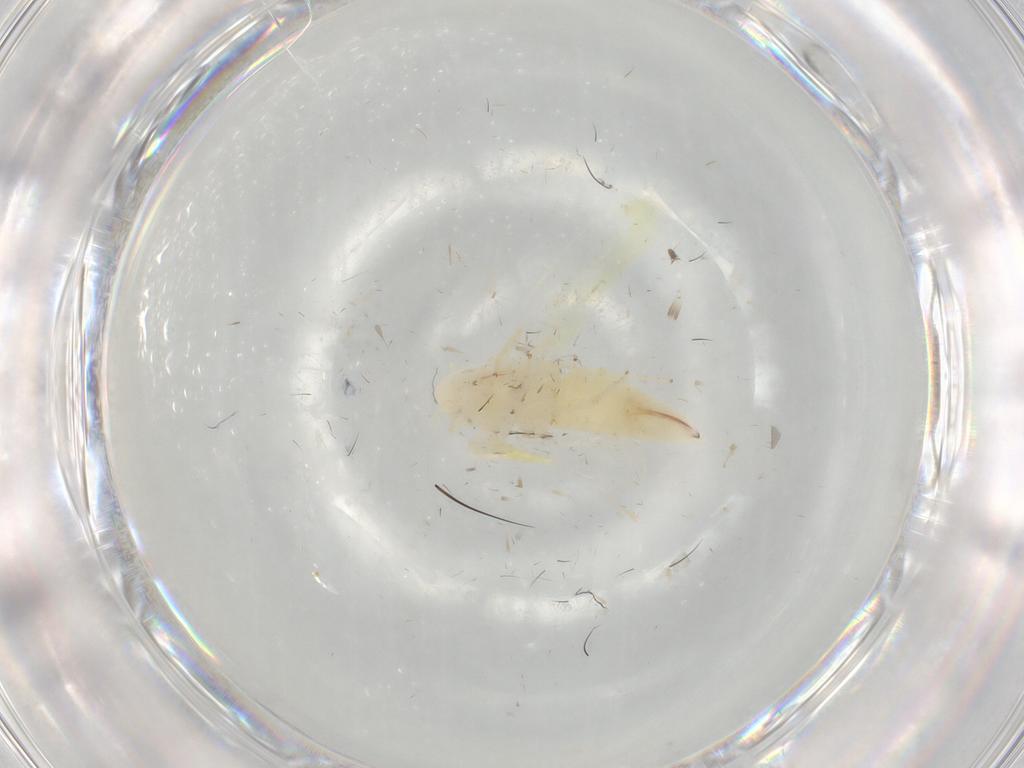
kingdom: Animalia
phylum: Arthropoda
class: Insecta
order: Hemiptera
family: Cicadellidae
